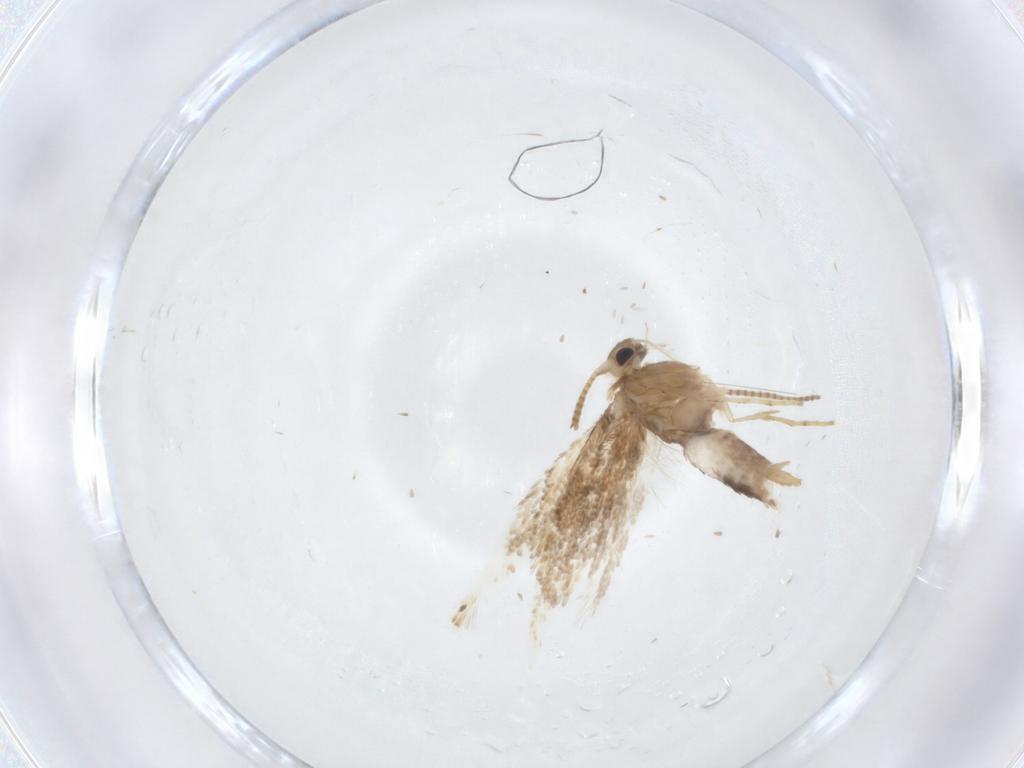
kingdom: Animalia
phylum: Arthropoda
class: Insecta
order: Lepidoptera
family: Gracillariidae
